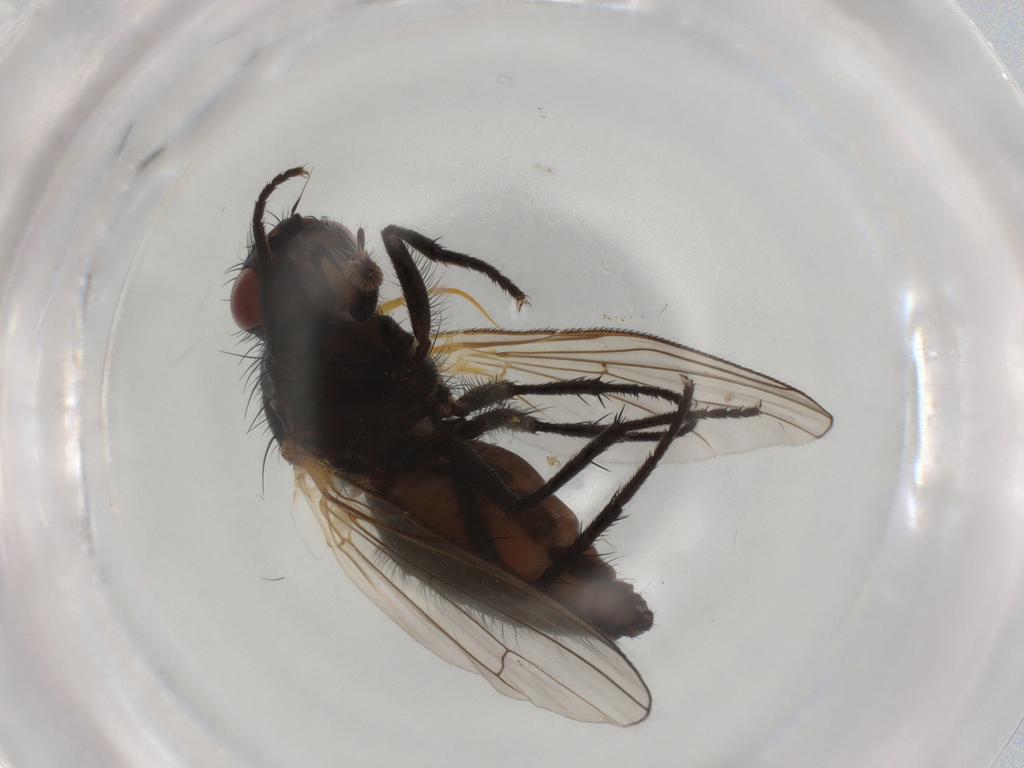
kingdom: Animalia
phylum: Arthropoda
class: Insecta
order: Diptera
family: Anthomyiidae
